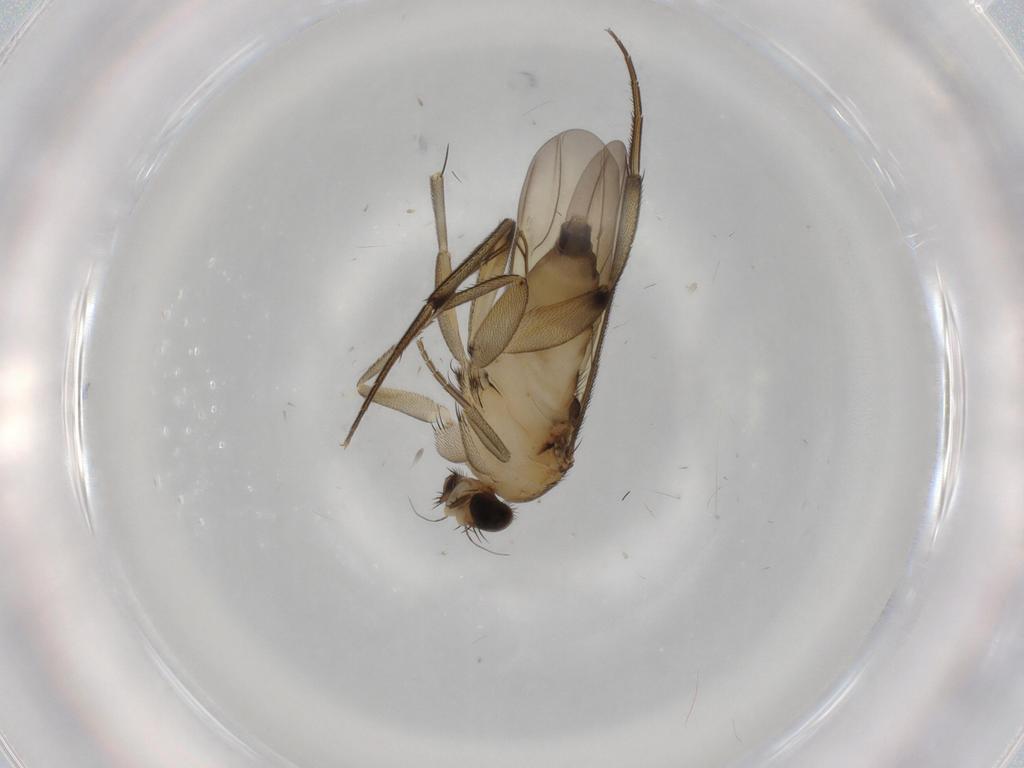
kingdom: Animalia
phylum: Arthropoda
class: Insecta
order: Diptera
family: Phoridae
